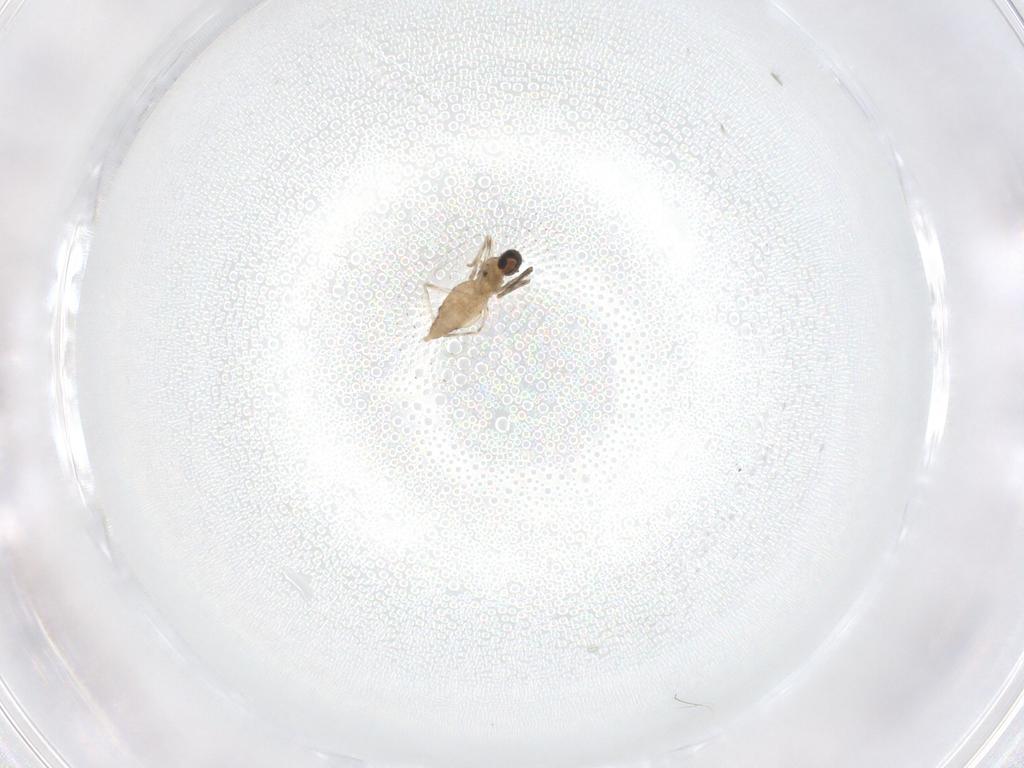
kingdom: Animalia
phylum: Arthropoda
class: Insecta
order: Diptera
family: Cecidomyiidae
